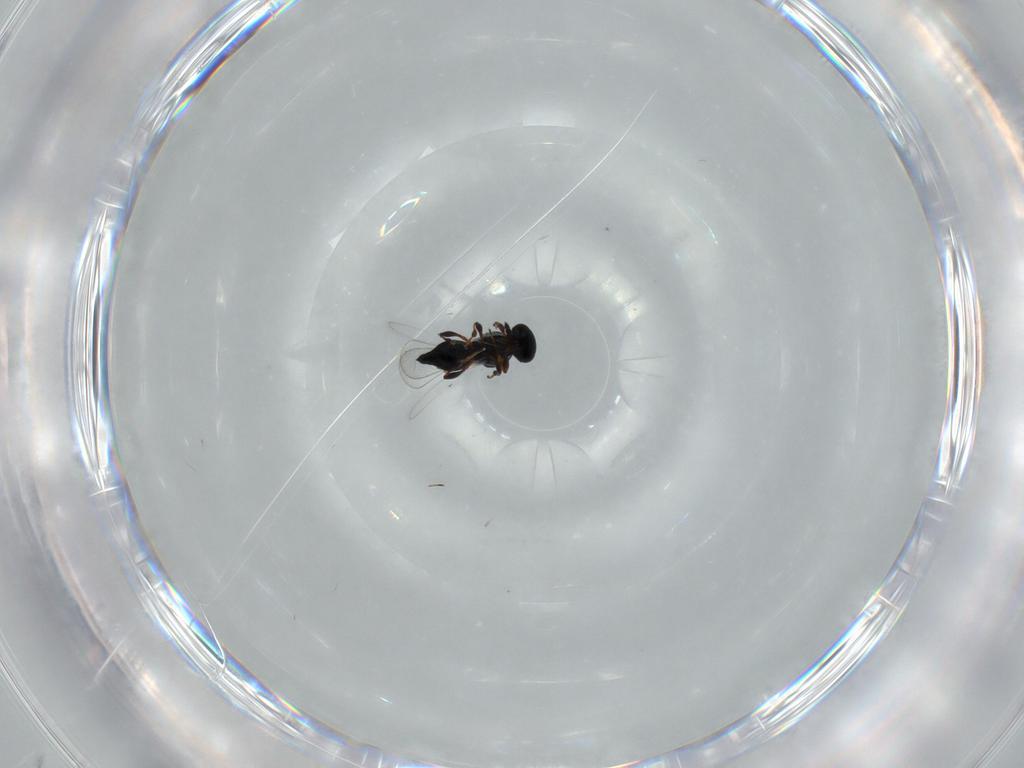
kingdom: Animalia
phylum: Arthropoda
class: Insecta
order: Hymenoptera
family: Platygastridae
